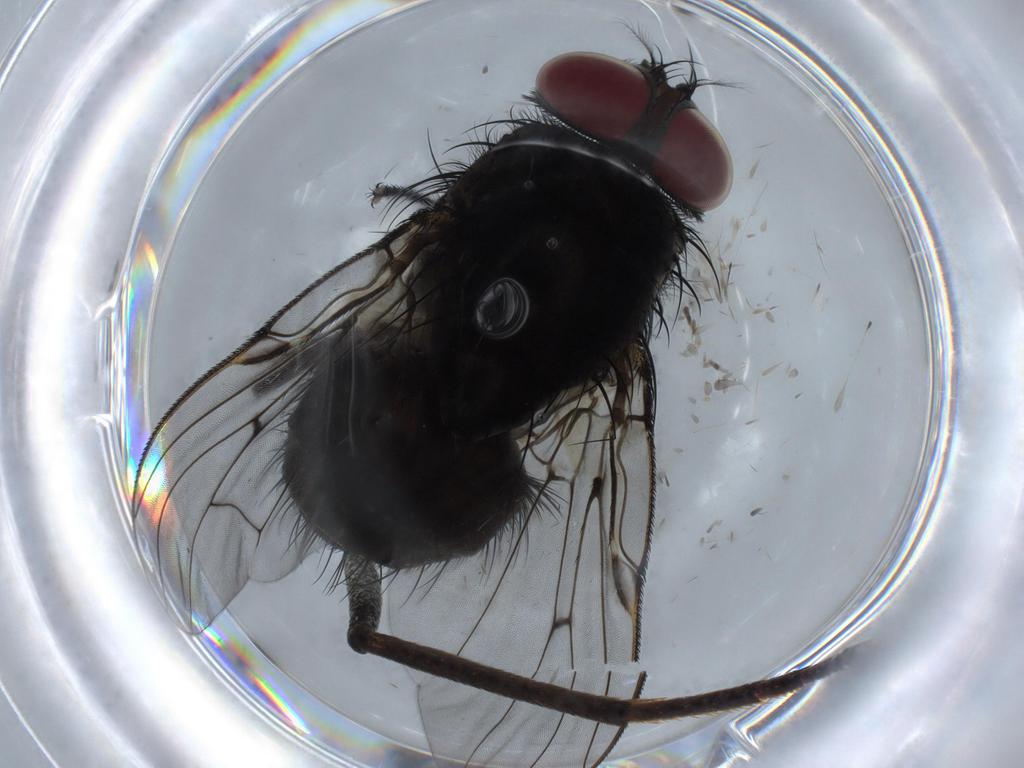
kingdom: Animalia
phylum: Arthropoda
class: Insecta
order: Diptera
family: Muscidae
